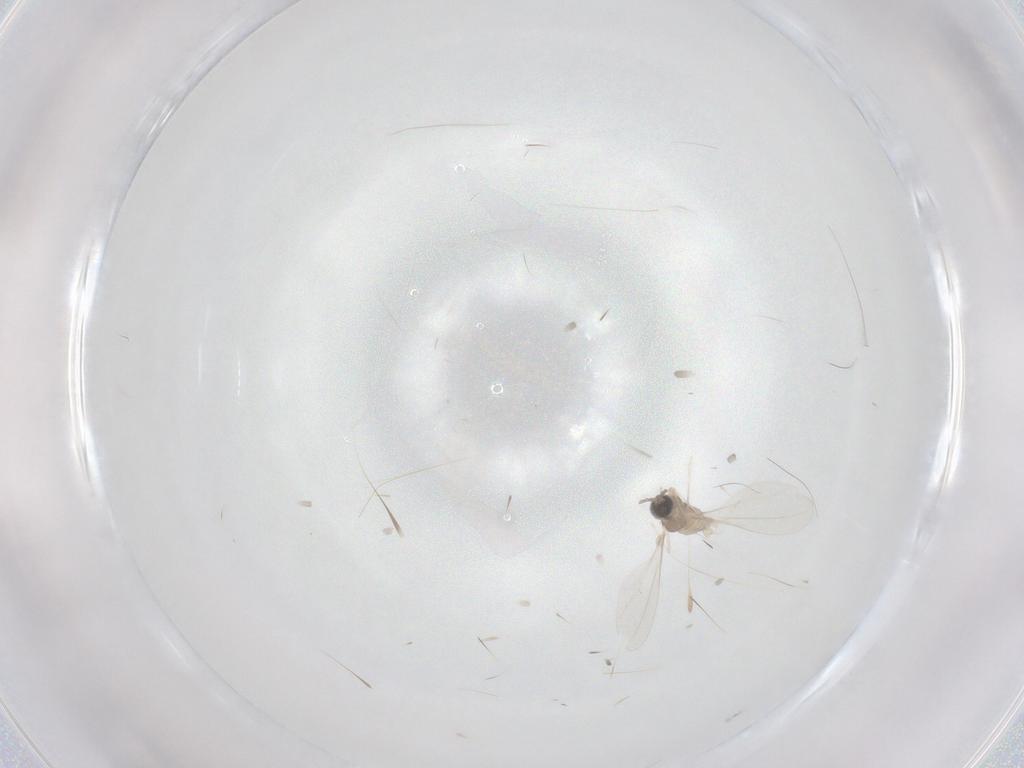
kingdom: Animalia
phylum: Arthropoda
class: Insecta
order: Diptera
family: Cecidomyiidae
